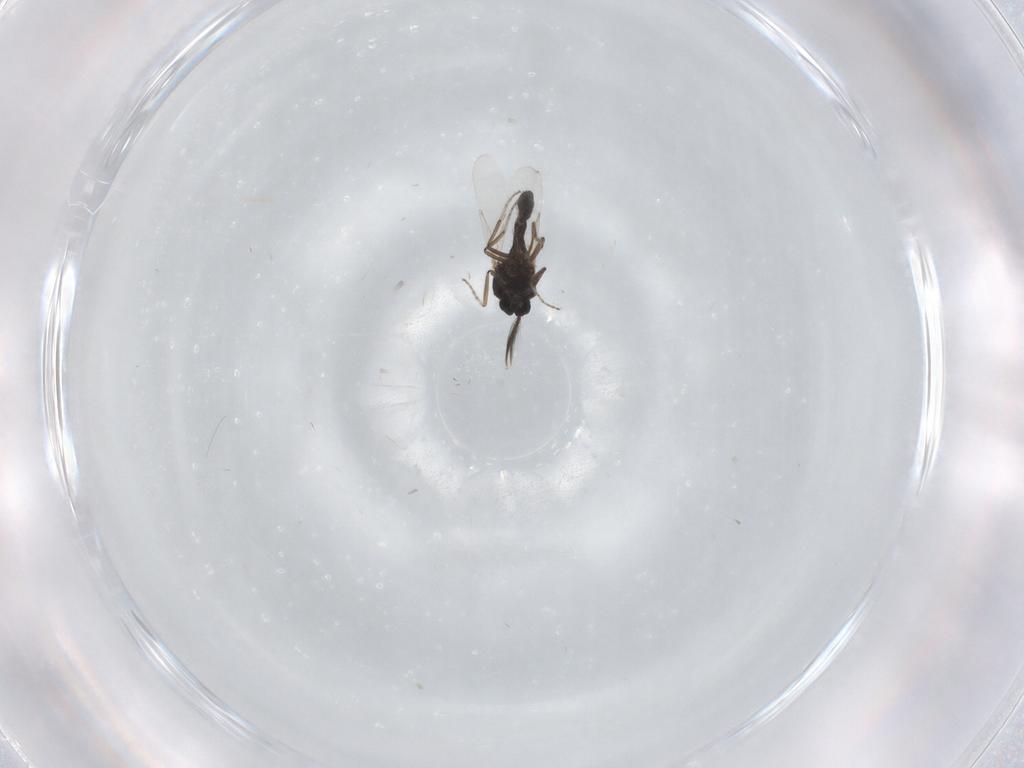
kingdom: Animalia
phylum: Arthropoda
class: Insecta
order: Diptera
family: Ceratopogonidae
